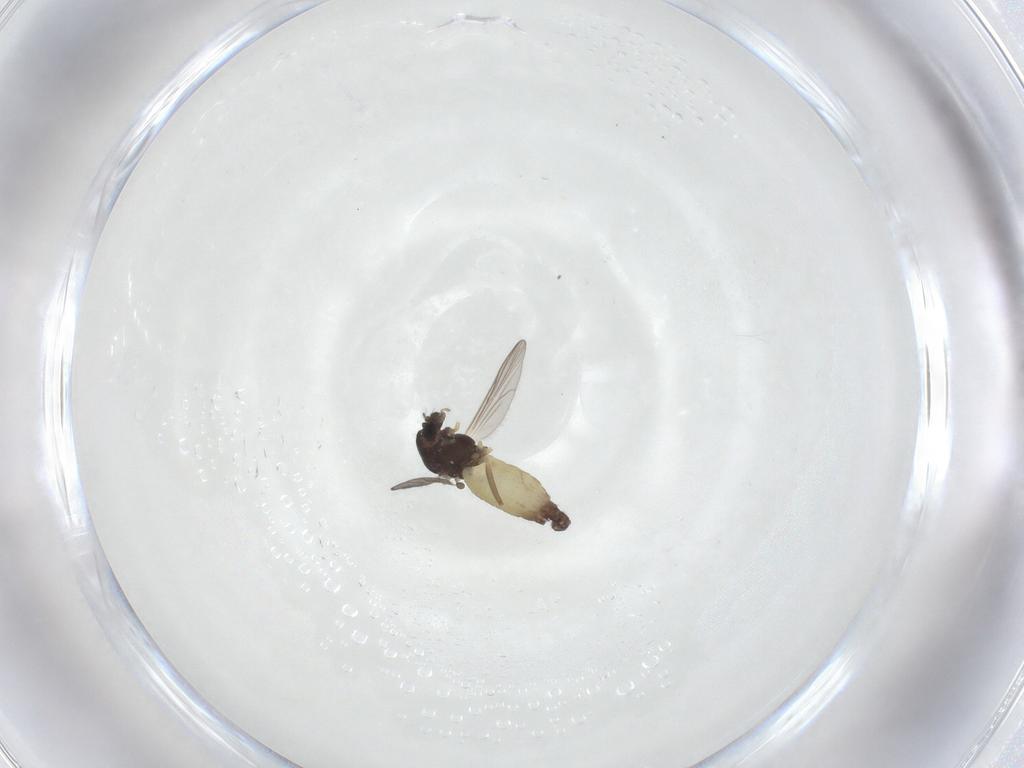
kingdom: Animalia
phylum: Arthropoda
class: Insecta
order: Diptera
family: Chironomidae
